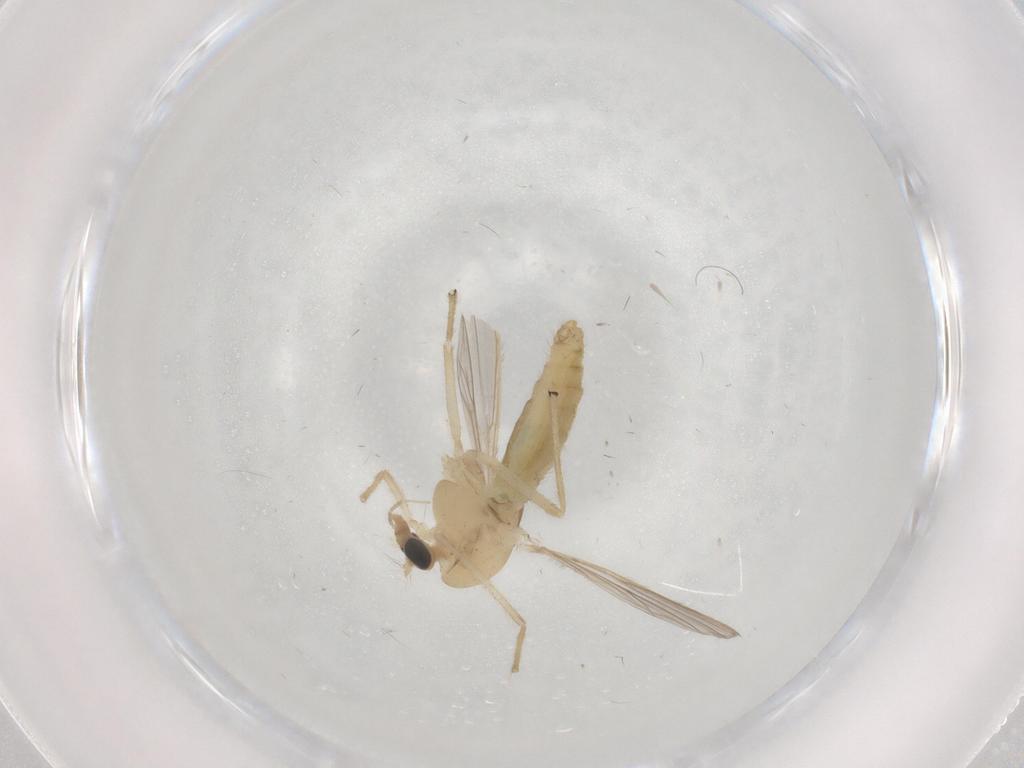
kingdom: Animalia
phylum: Arthropoda
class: Insecta
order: Diptera
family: Chironomidae
